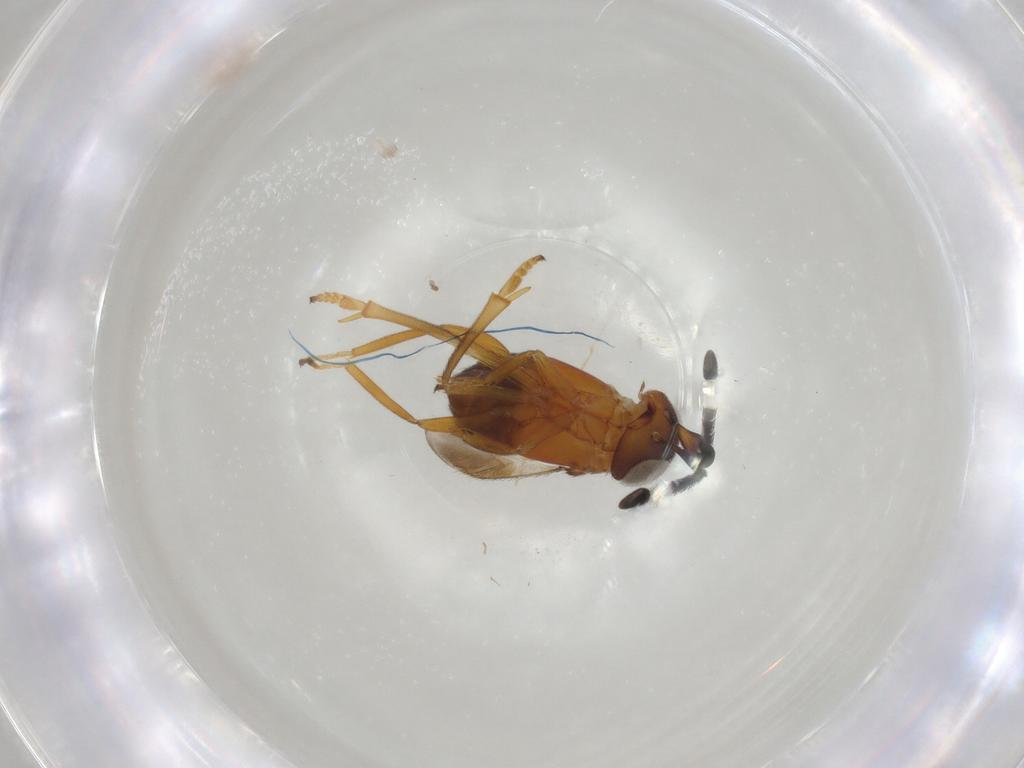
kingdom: Animalia
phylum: Arthropoda
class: Insecta
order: Hymenoptera
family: Encyrtidae
